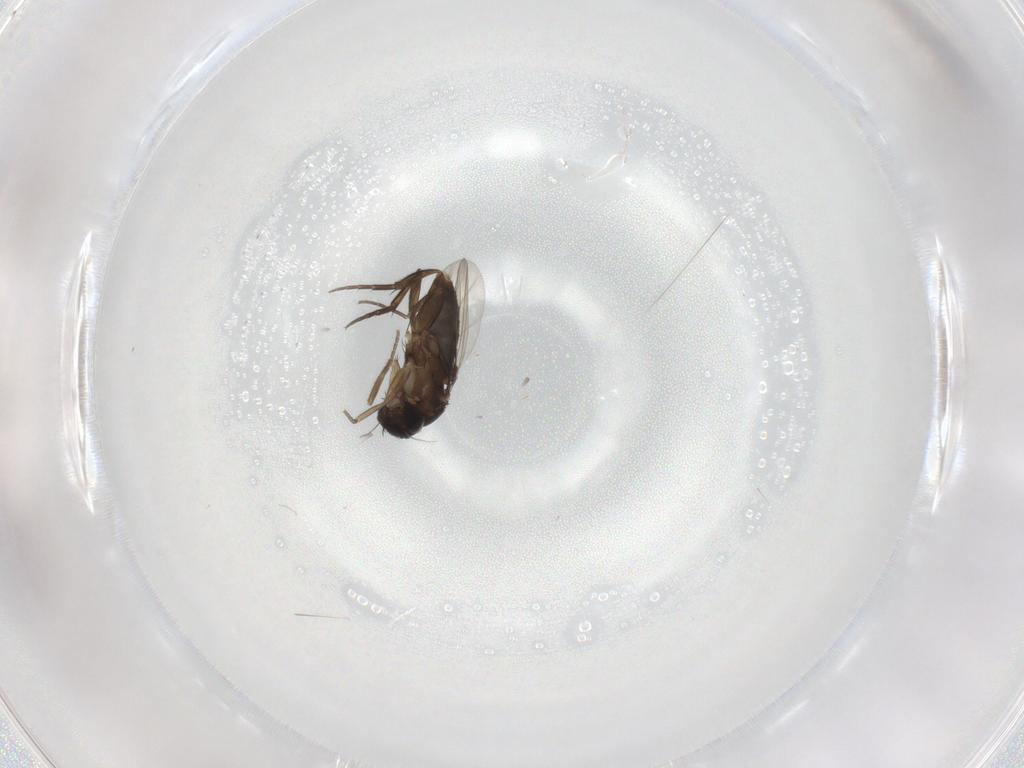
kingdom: Animalia
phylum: Arthropoda
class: Insecta
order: Diptera
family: Phoridae
